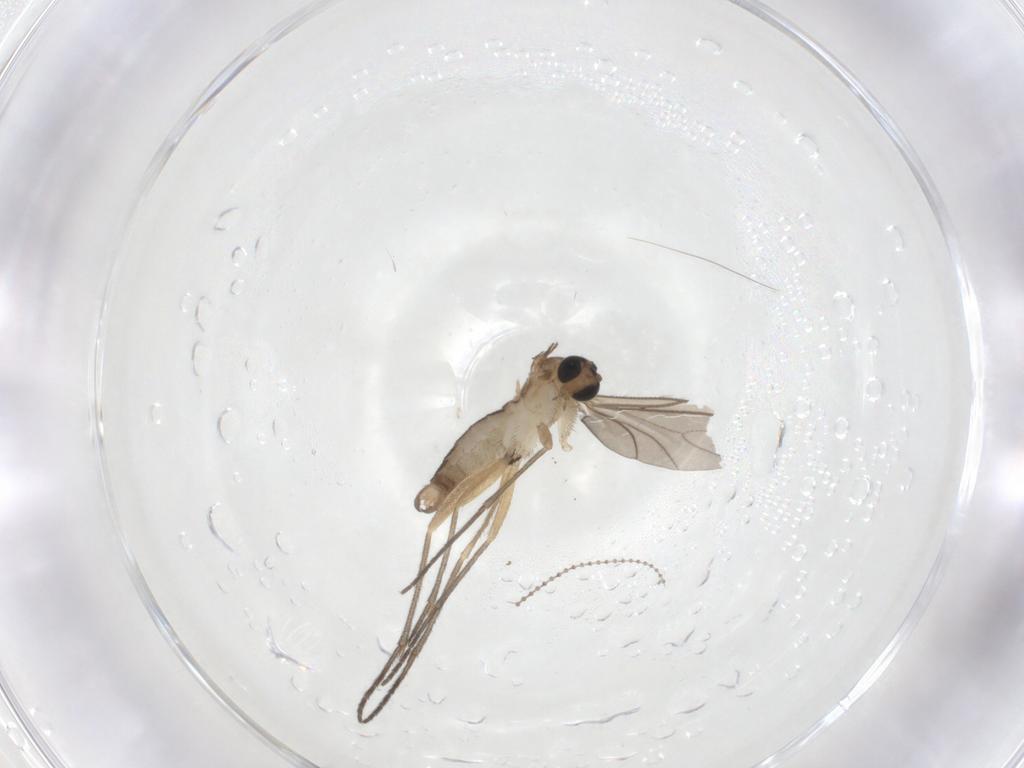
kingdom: Animalia
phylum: Arthropoda
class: Insecta
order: Diptera
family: Sciaridae
